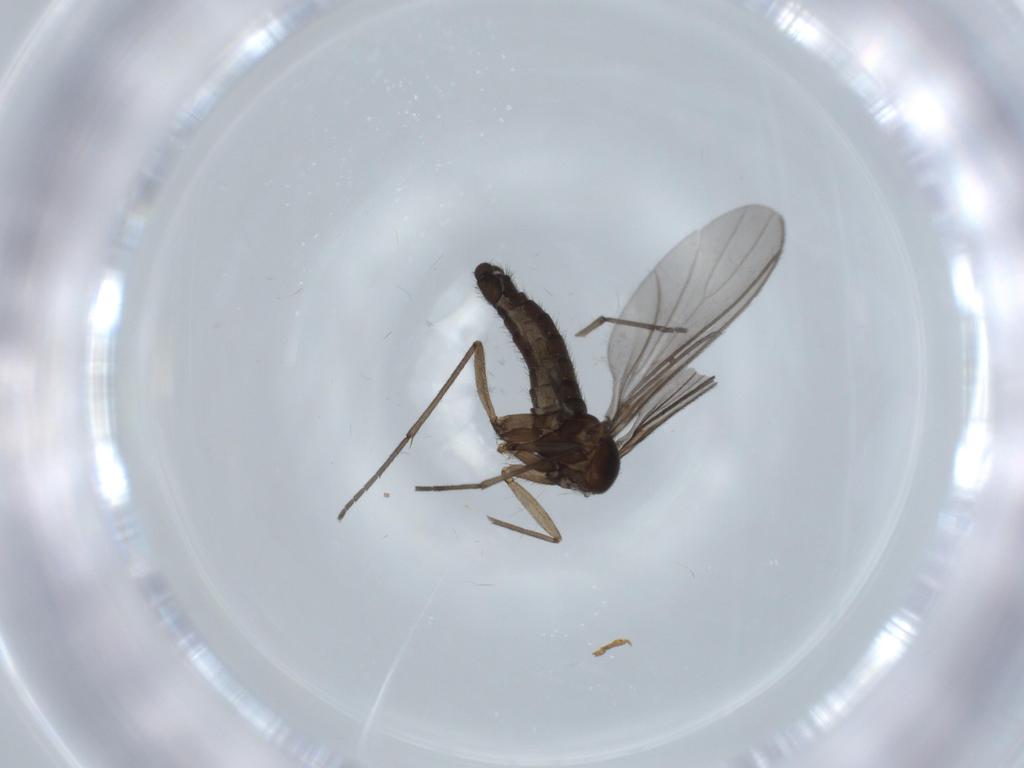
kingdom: Animalia
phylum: Arthropoda
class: Insecta
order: Diptera
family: Sciaridae
